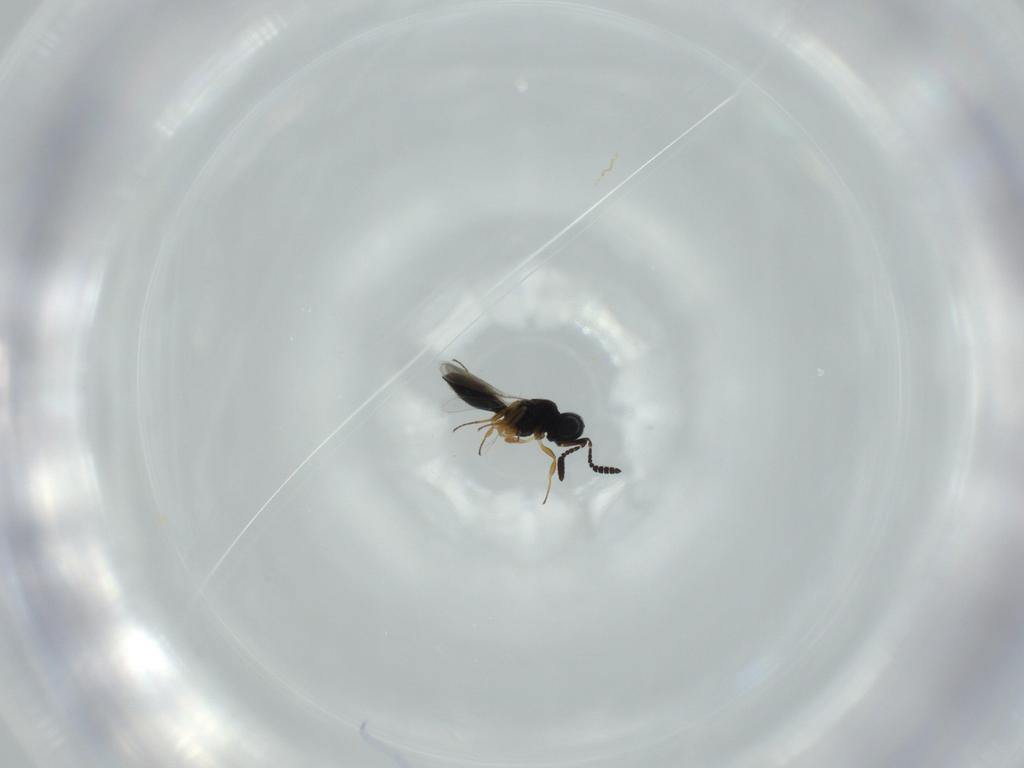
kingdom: Animalia
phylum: Arthropoda
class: Insecta
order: Hymenoptera
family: Scelionidae
